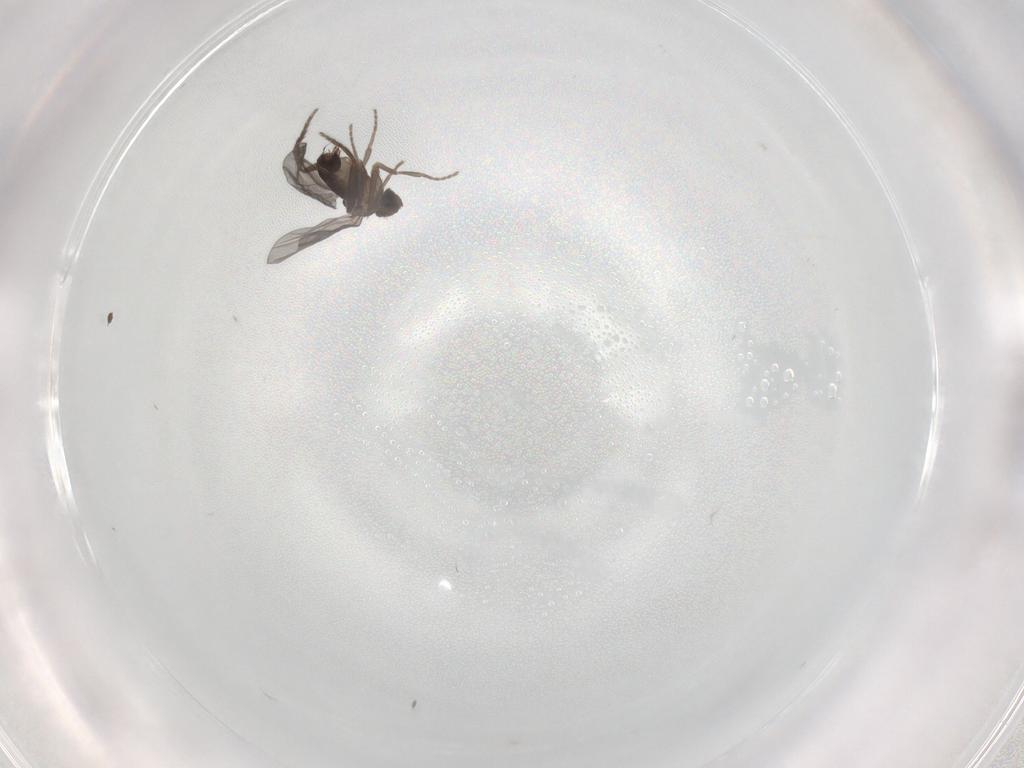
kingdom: Animalia
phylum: Arthropoda
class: Insecta
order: Diptera
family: Phoridae
